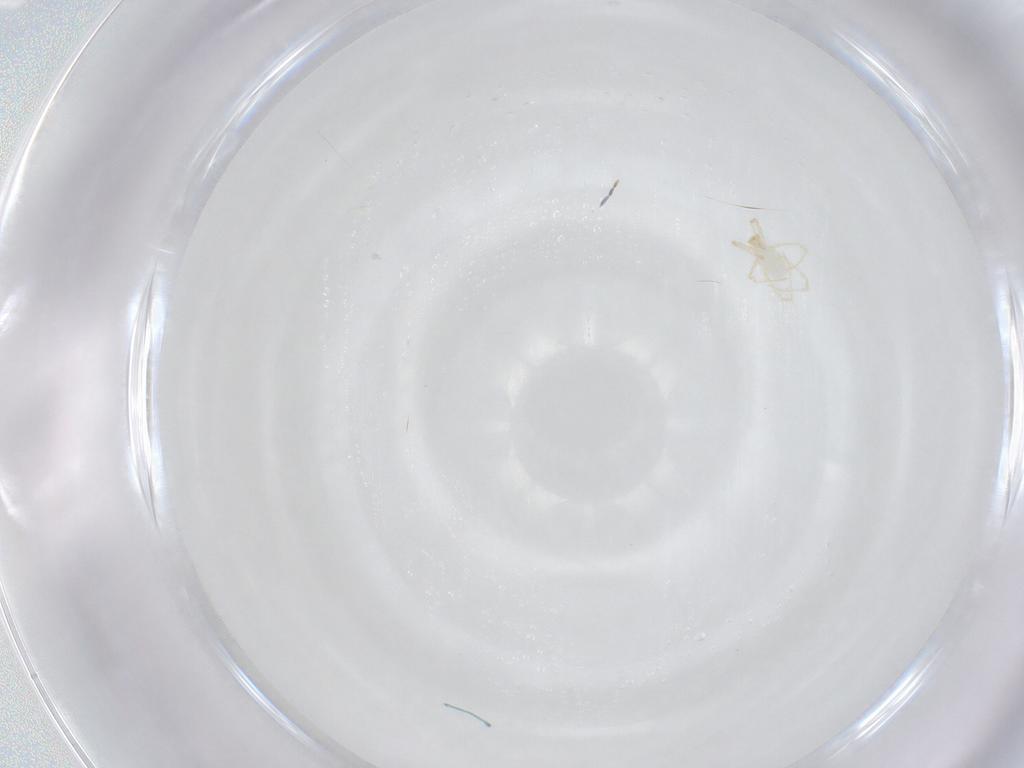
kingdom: Animalia
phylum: Arthropoda
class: Arachnida
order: Trombidiformes
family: Erythraeidae
